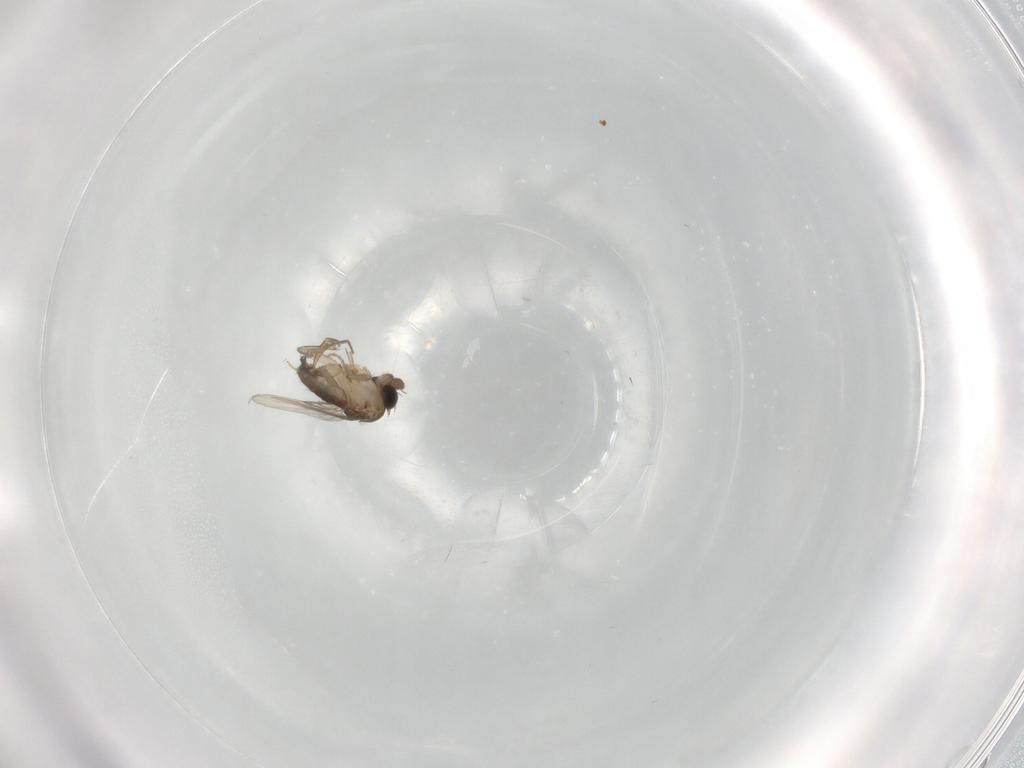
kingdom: Animalia
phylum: Arthropoda
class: Insecta
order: Diptera
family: Phoridae
